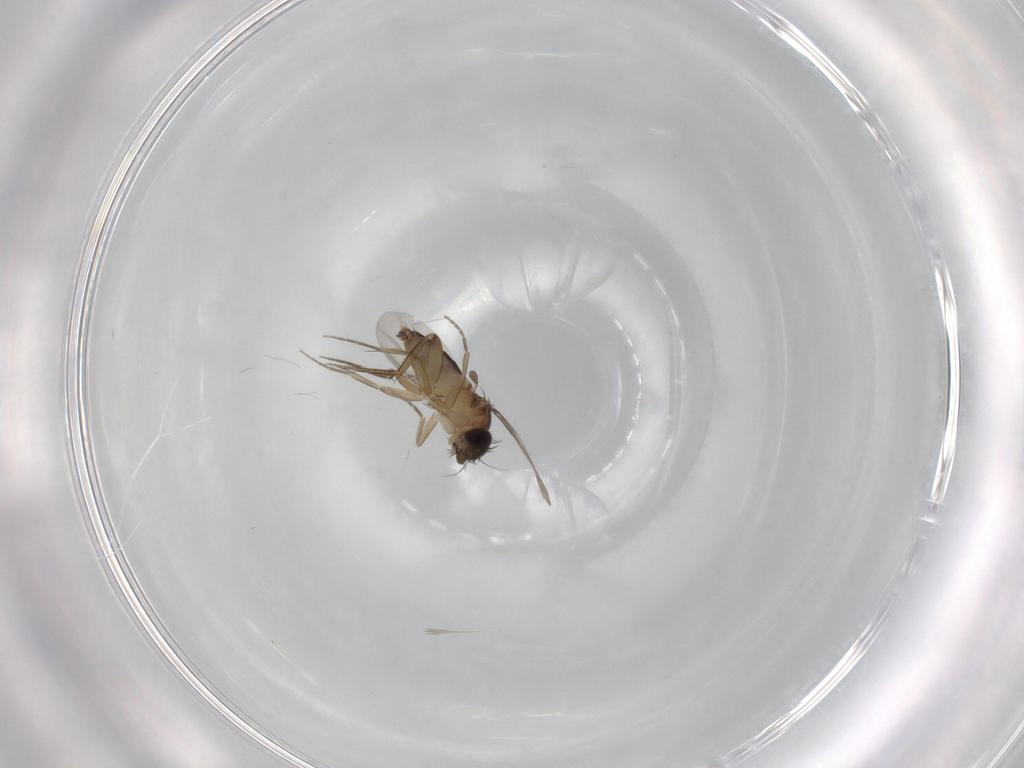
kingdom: Animalia
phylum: Arthropoda
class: Insecta
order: Diptera
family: Phoridae
